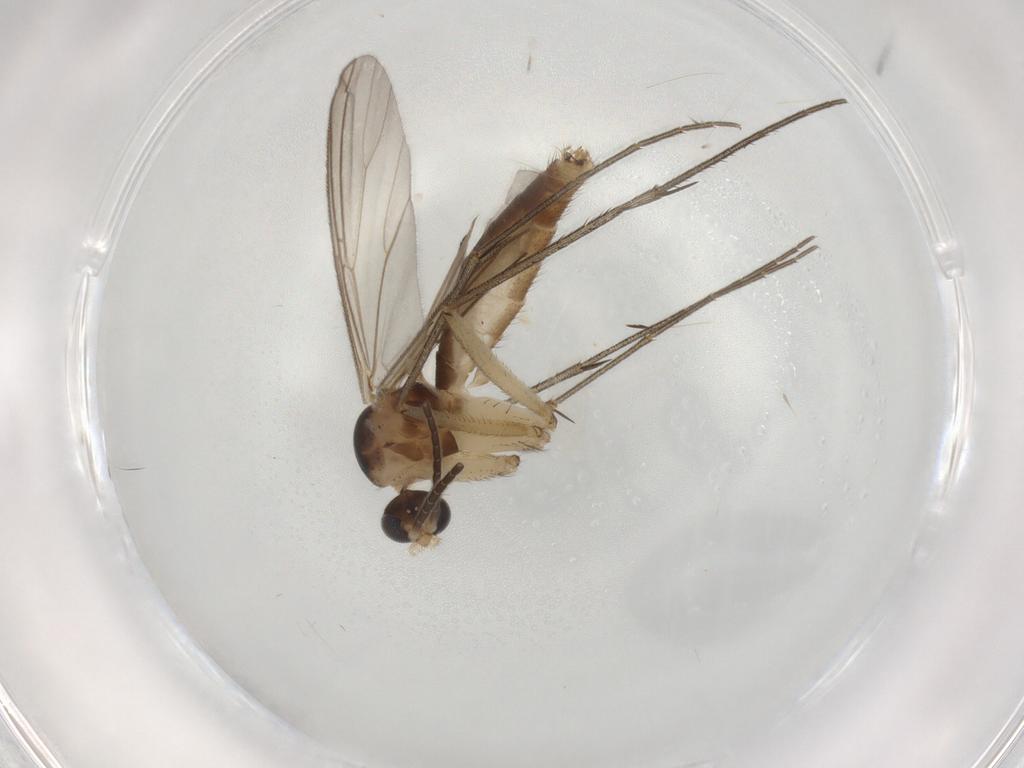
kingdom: Animalia
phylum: Arthropoda
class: Insecta
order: Diptera
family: Mycetophilidae
